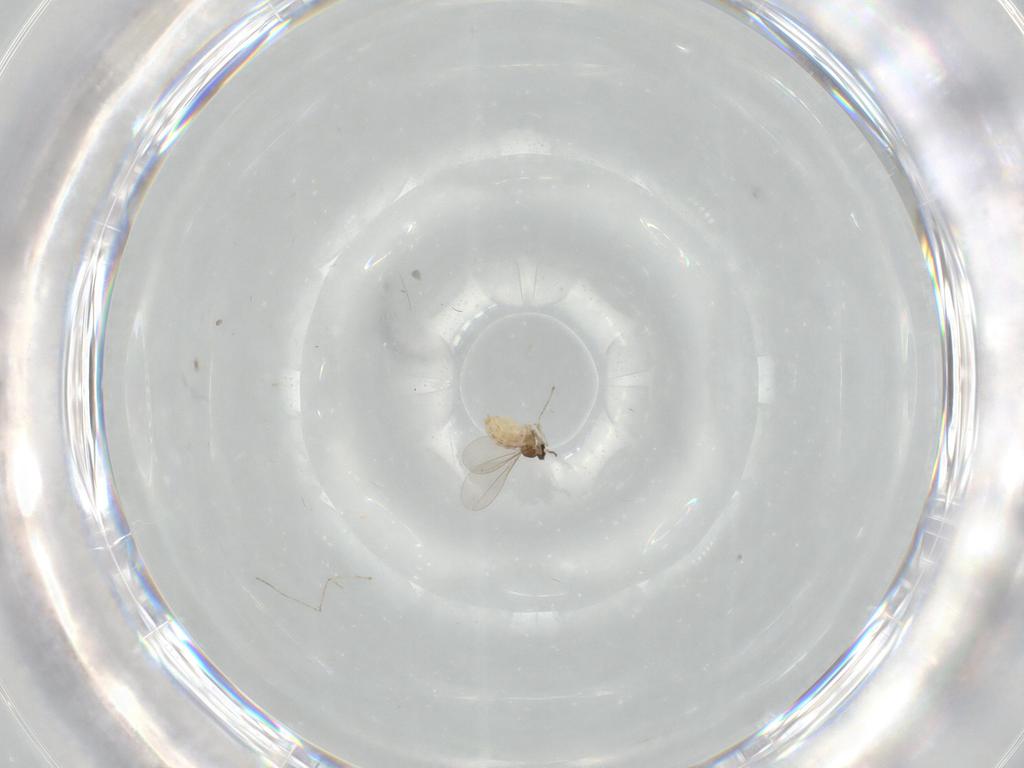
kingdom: Animalia
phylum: Arthropoda
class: Insecta
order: Diptera
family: Cecidomyiidae
